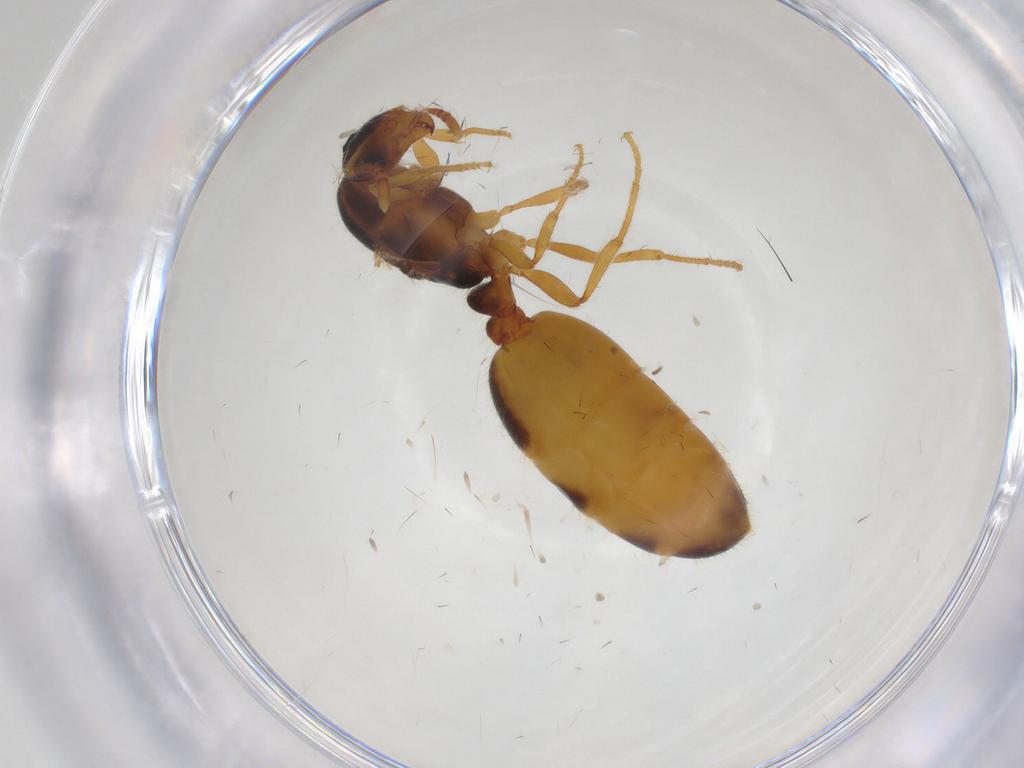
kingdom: Animalia
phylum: Arthropoda
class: Insecta
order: Hymenoptera
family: Formicidae
